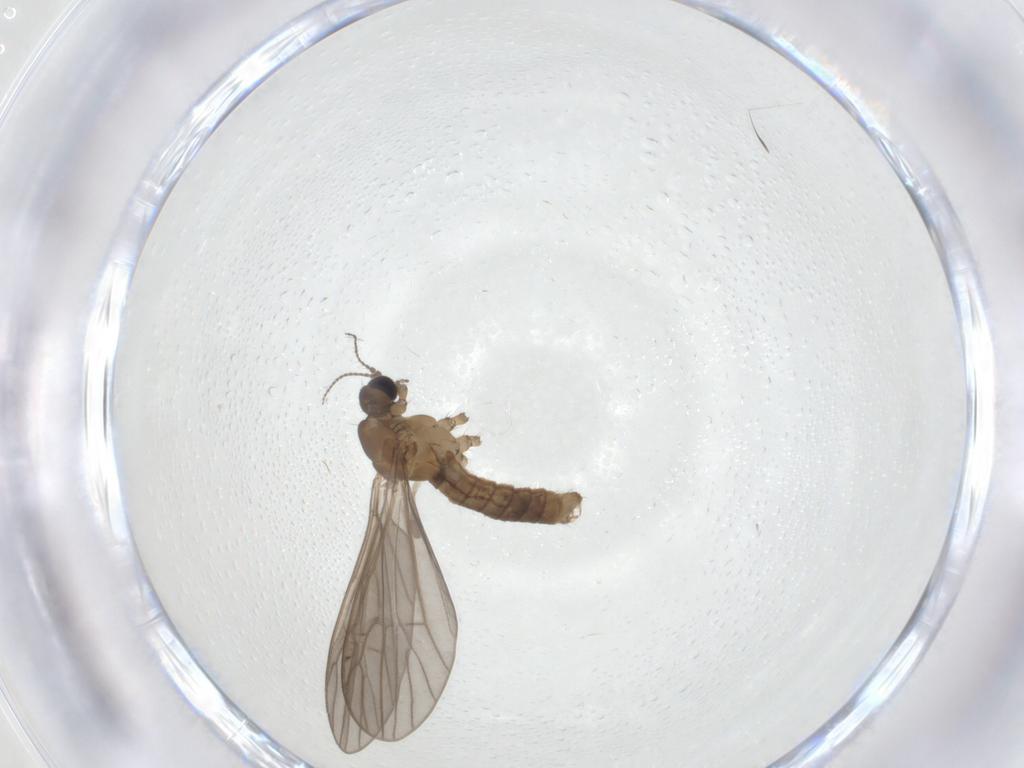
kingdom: Animalia
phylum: Arthropoda
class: Insecta
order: Diptera
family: Limoniidae
